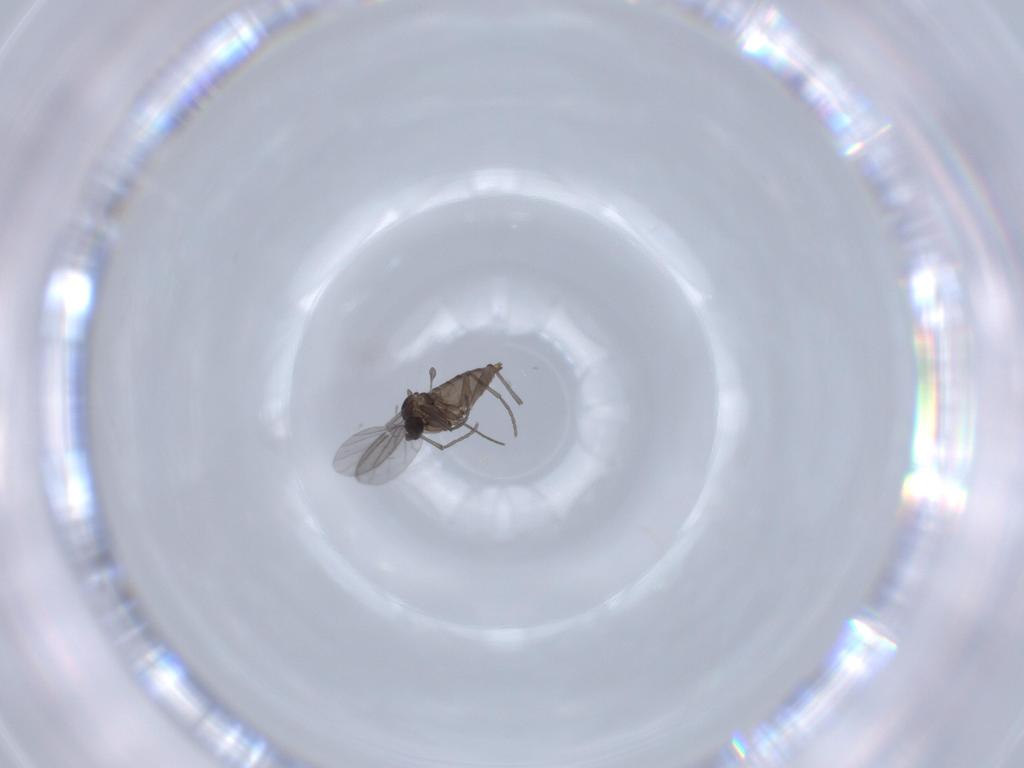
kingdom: Animalia
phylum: Arthropoda
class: Insecta
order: Diptera
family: Sciaridae
